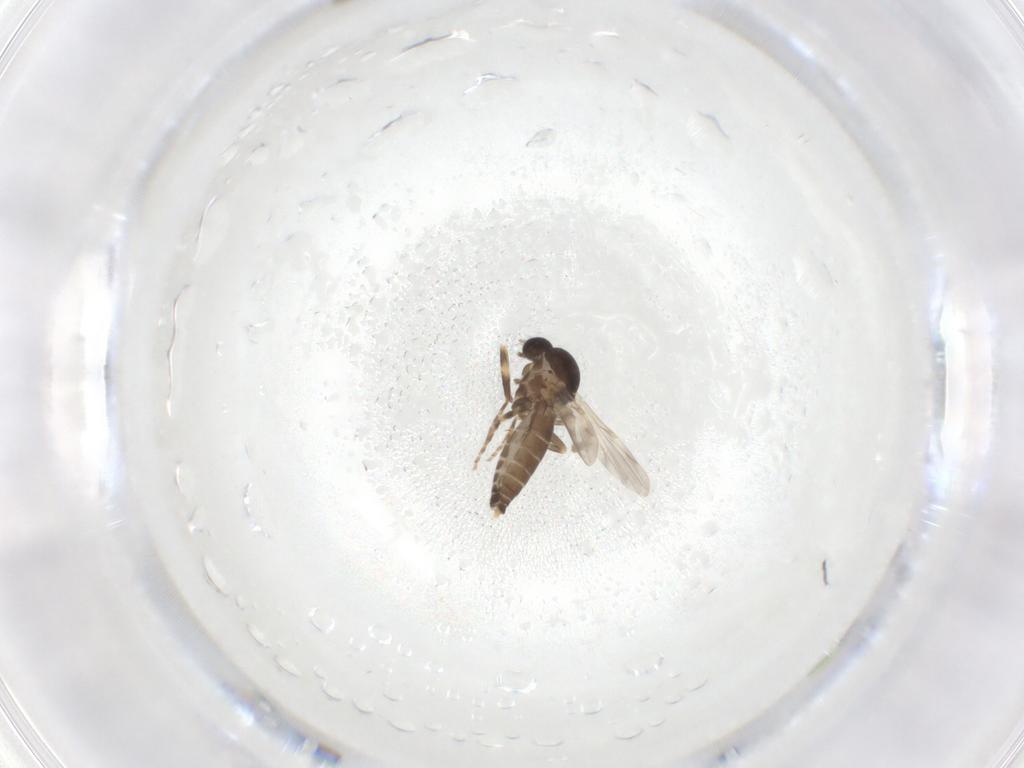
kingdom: Animalia
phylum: Arthropoda
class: Insecta
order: Diptera
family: Ceratopogonidae
